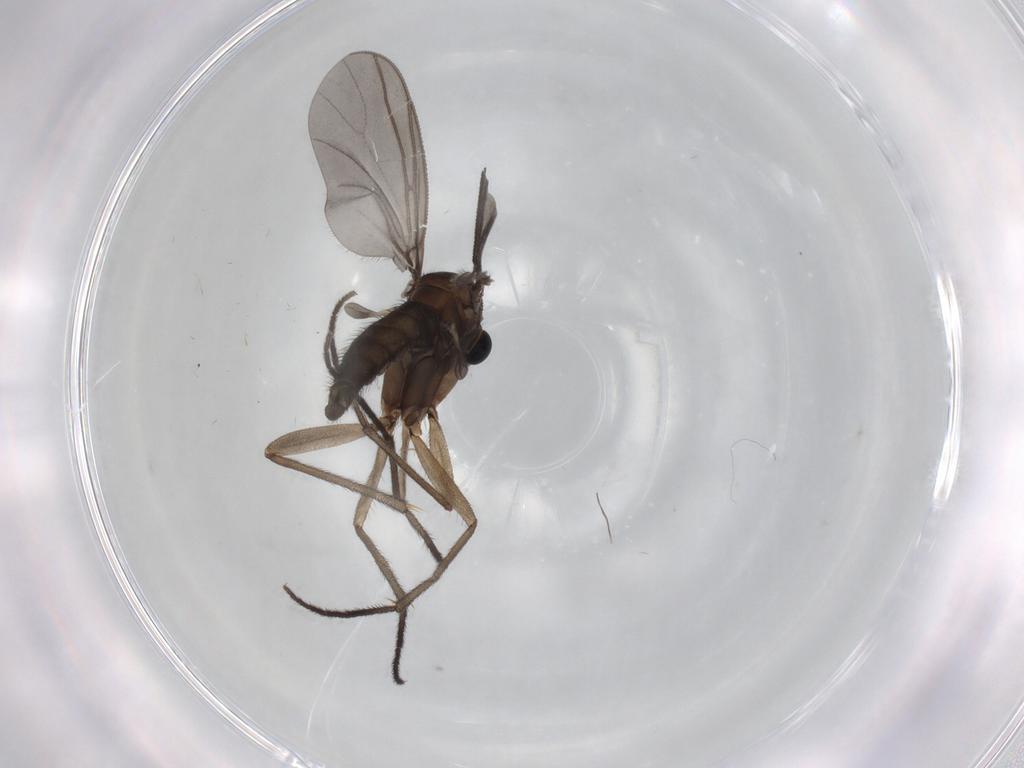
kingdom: Animalia
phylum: Arthropoda
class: Insecta
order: Diptera
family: Sciaridae
